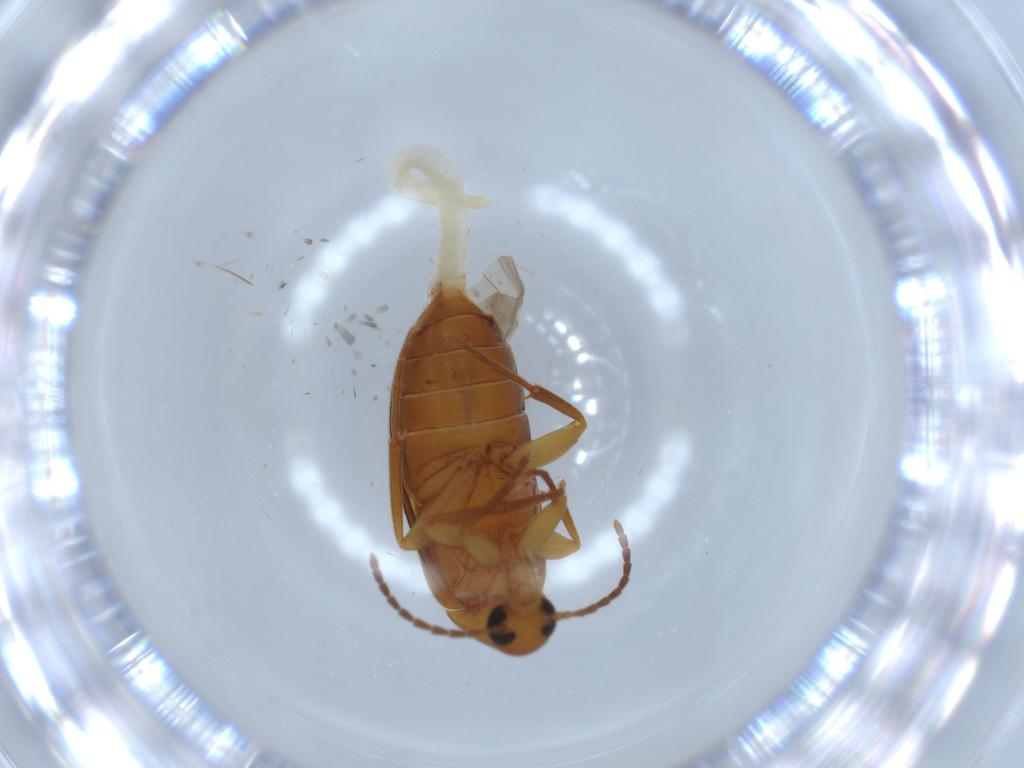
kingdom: Animalia
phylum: Arthropoda
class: Insecta
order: Coleoptera
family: Scraptiidae
